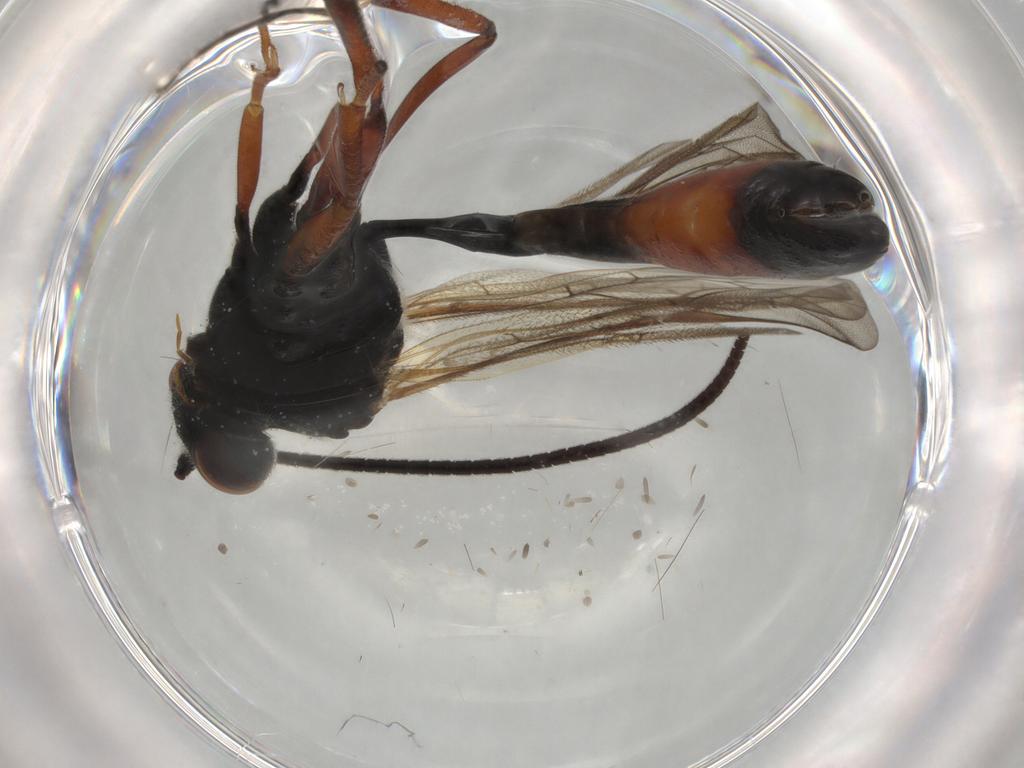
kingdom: Animalia
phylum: Arthropoda
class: Insecta
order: Hymenoptera
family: Ichneumonidae
